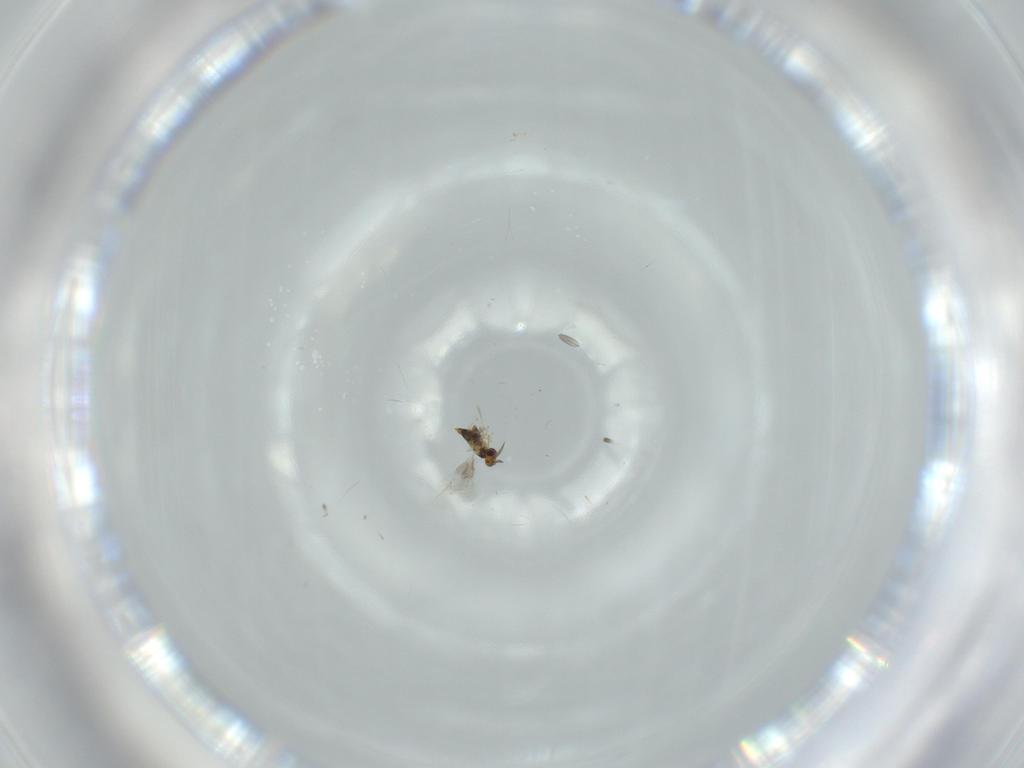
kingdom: Animalia
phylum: Arthropoda
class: Insecta
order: Hymenoptera
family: Aphelinidae
